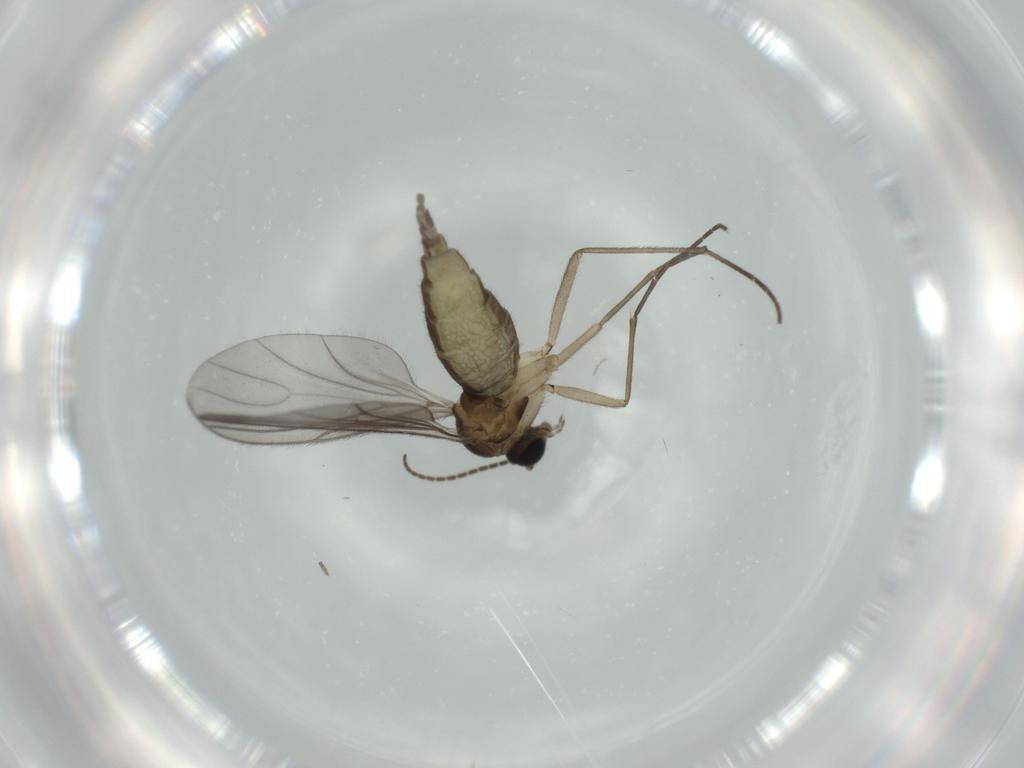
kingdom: Animalia
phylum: Arthropoda
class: Insecta
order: Diptera
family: Sciaridae
